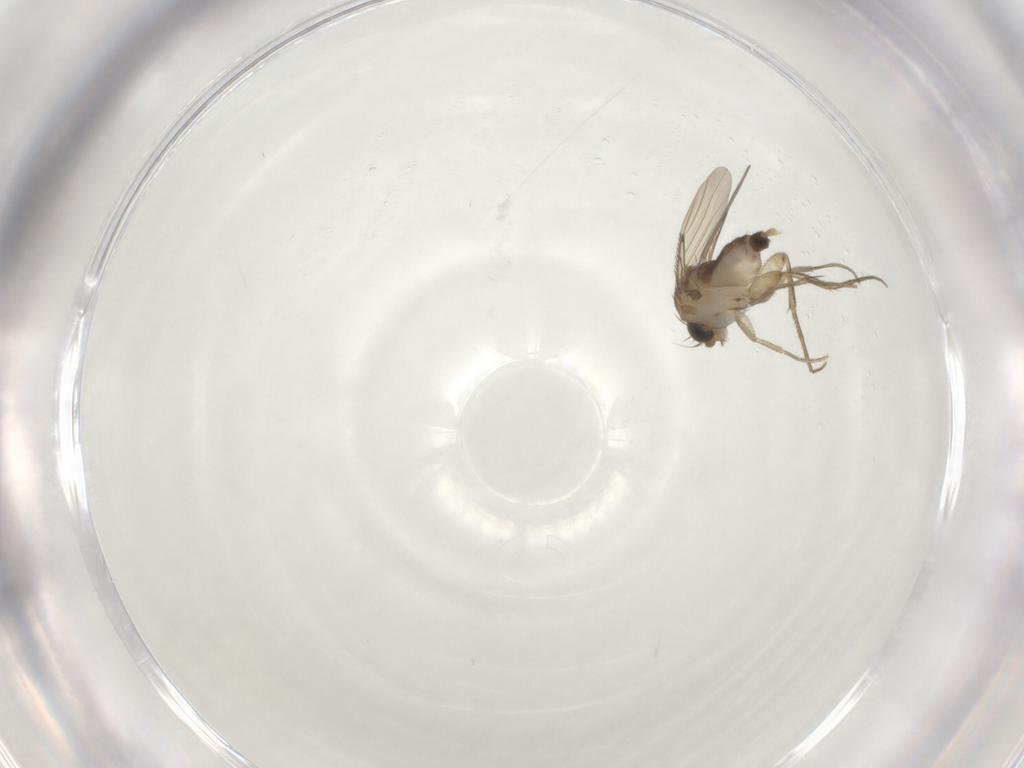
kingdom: Animalia
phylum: Arthropoda
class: Insecta
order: Diptera
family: Phoridae
